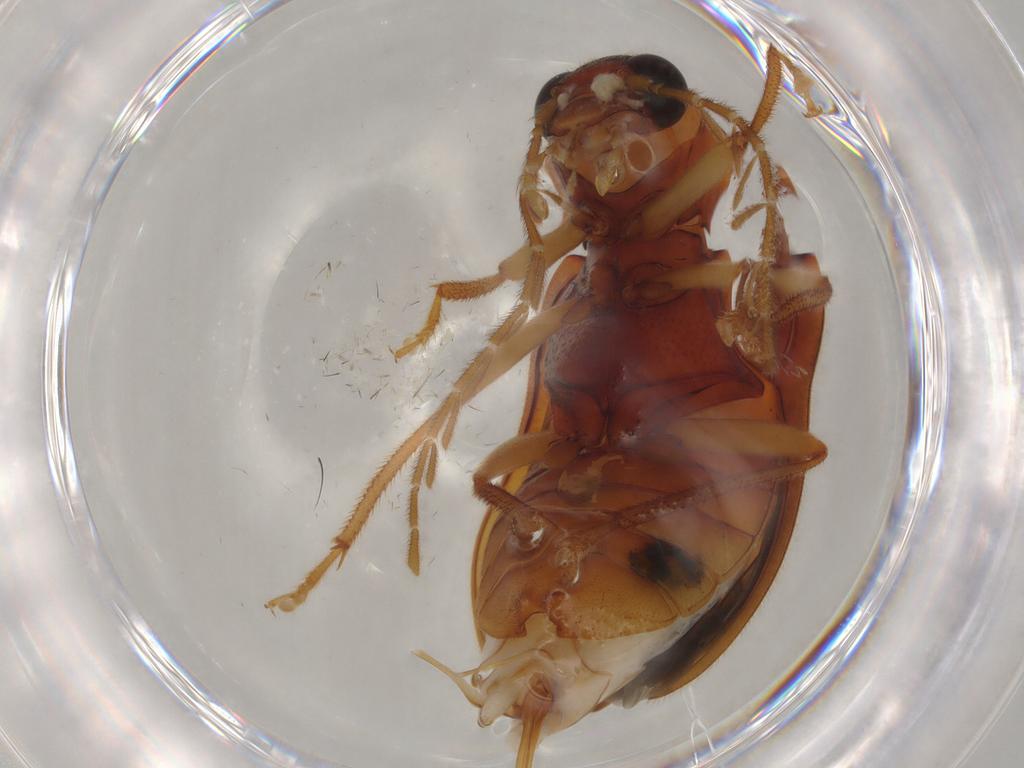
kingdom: Animalia
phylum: Arthropoda
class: Insecta
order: Coleoptera
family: Ptilodactylidae
